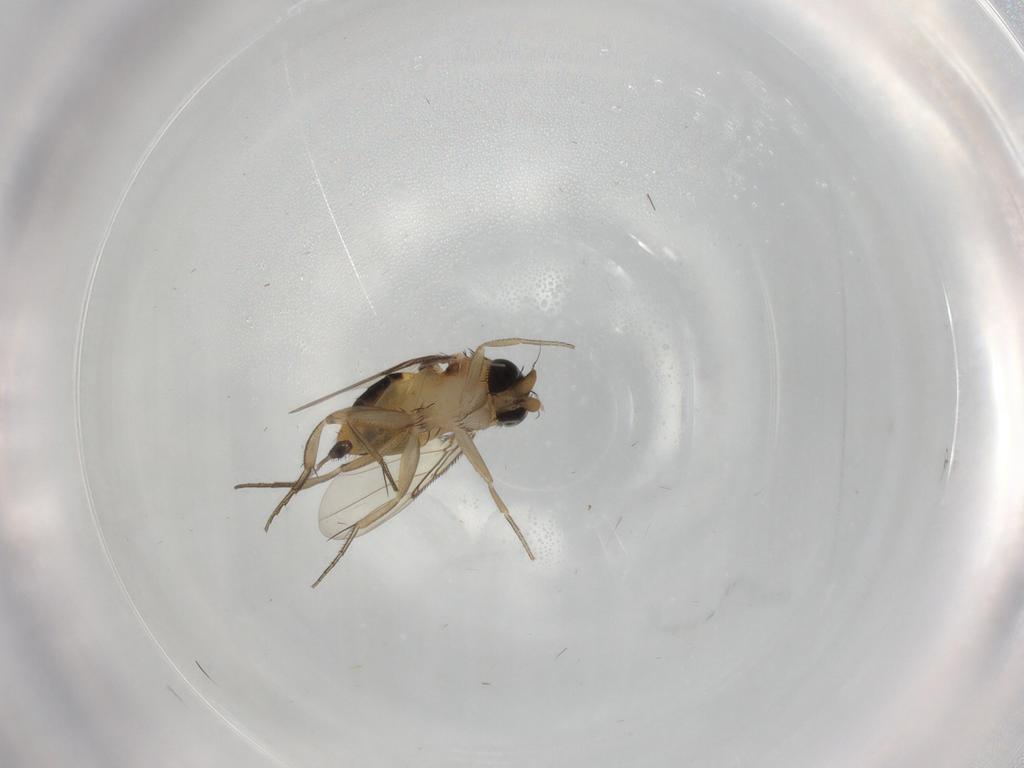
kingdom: Animalia
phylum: Arthropoda
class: Insecta
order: Diptera
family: Phoridae
